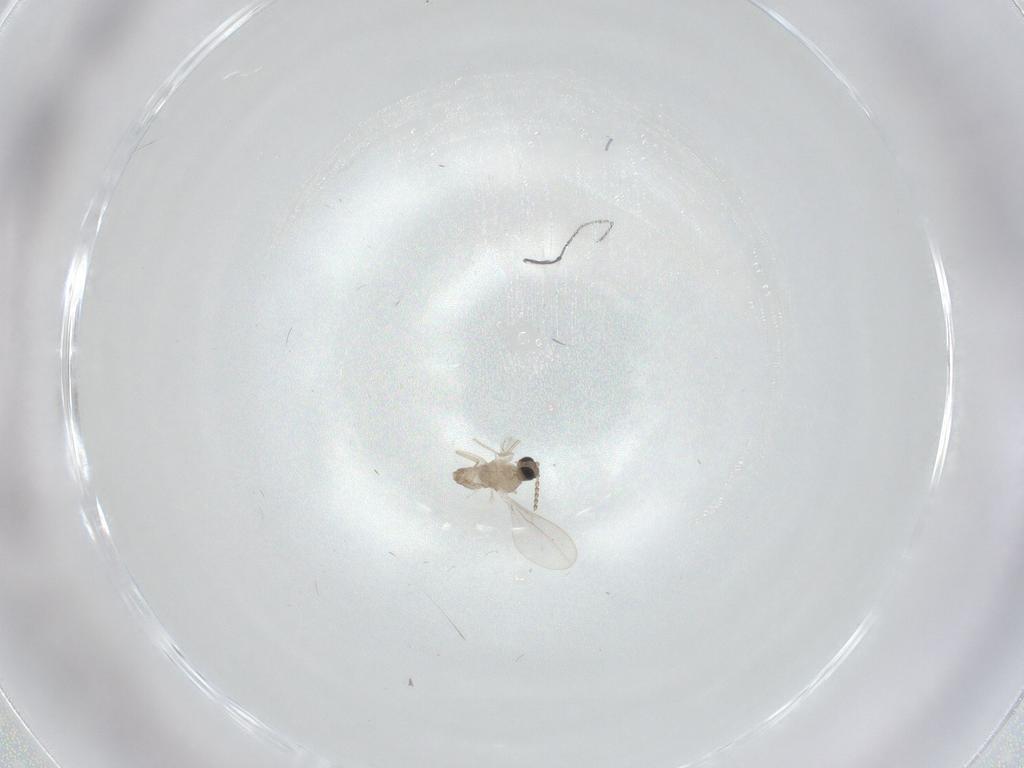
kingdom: Animalia
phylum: Arthropoda
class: Insecta
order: Diptera
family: Cecidomyiidae
